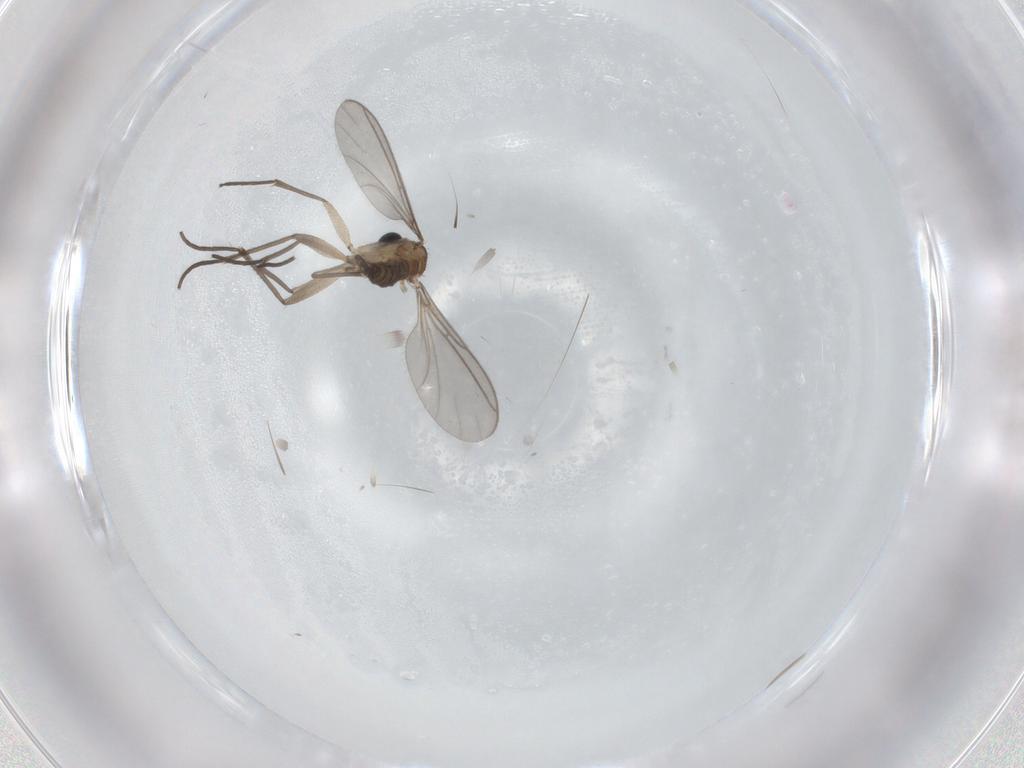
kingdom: Animalia
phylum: Arthropoda
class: Insecta
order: Diptera
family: Sciaridae
